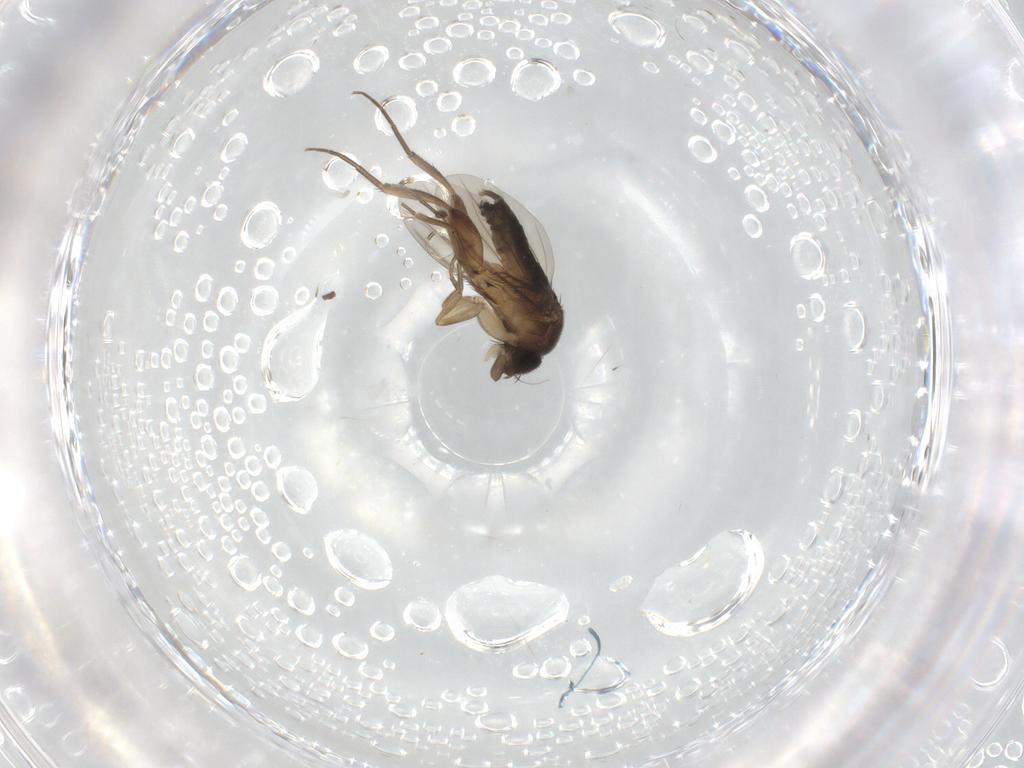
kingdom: Animalia
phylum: Arthropoda
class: Insecta
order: Diptera
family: Phoridae
